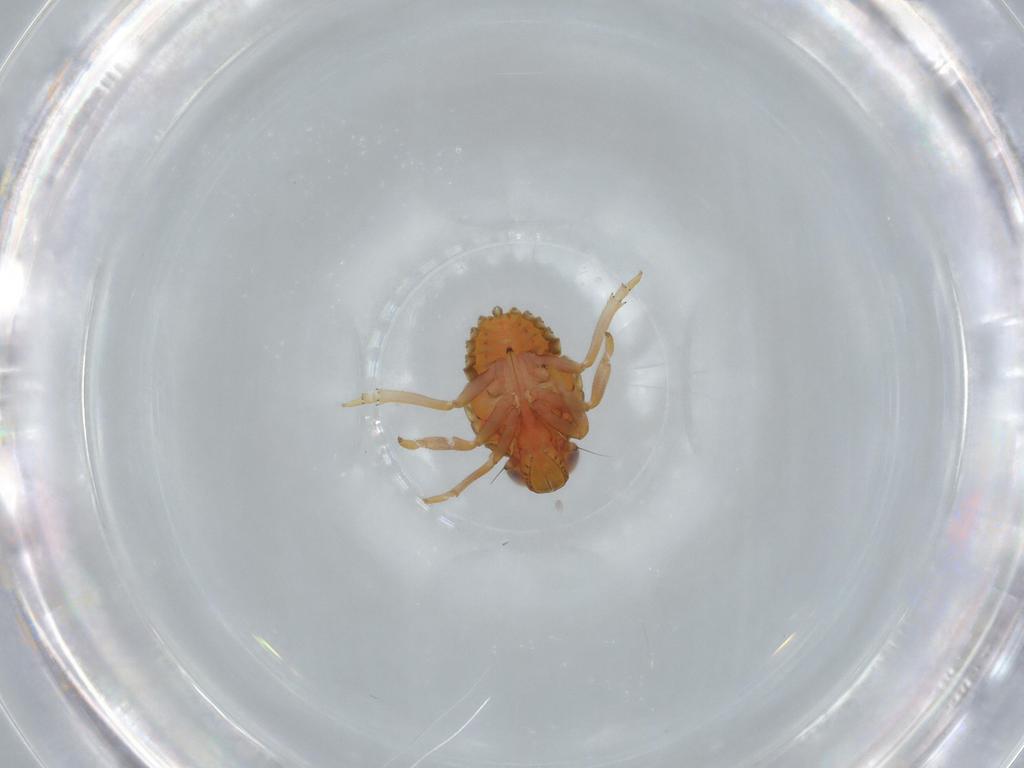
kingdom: Animalia
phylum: Arthropoda
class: Insecta
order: Hemiptera
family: Issidae
